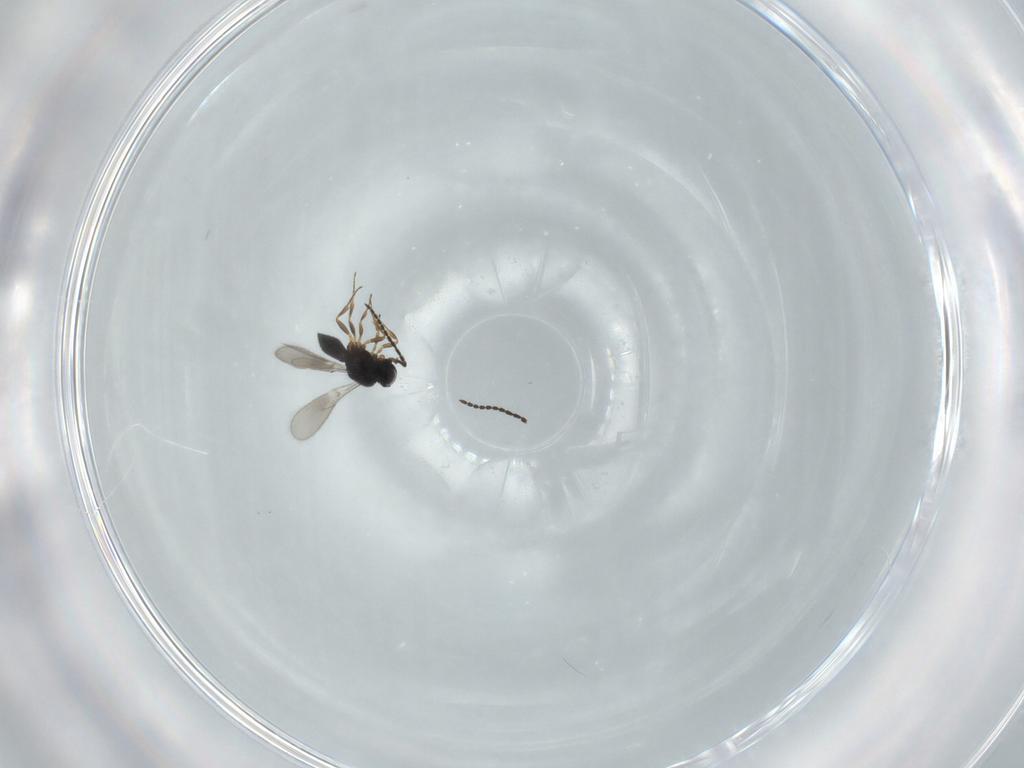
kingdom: Animalia
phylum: Arthropoda
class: Insecta
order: Hymenoptera
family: Scelionidae
